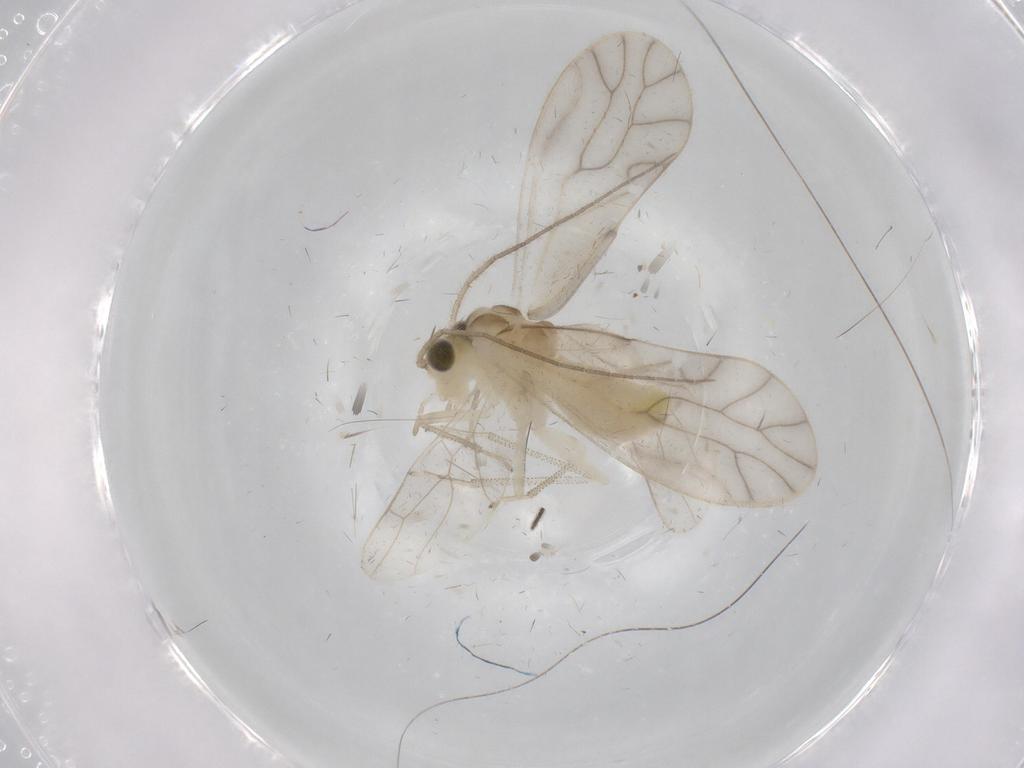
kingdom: Animalia
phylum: Arthropoda
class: Insecta
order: Psocodea
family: Caeciliusidae
